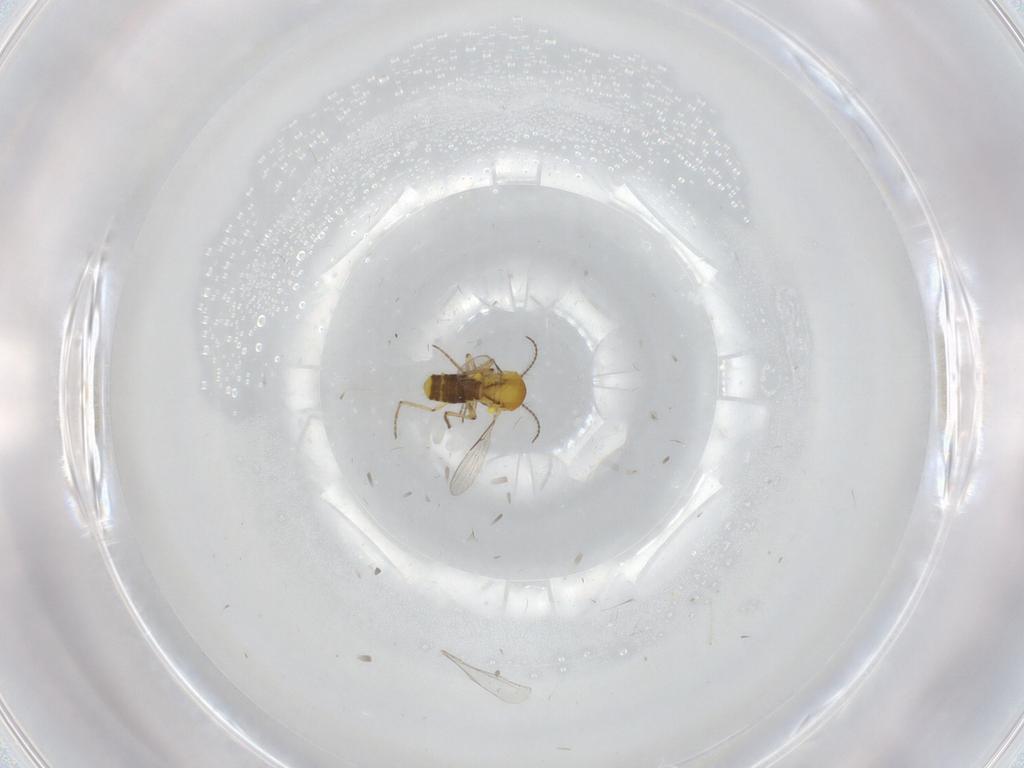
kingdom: Animalia
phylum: Arthropoda
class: Insecta
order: Diptera
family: Cecidomyiidae
